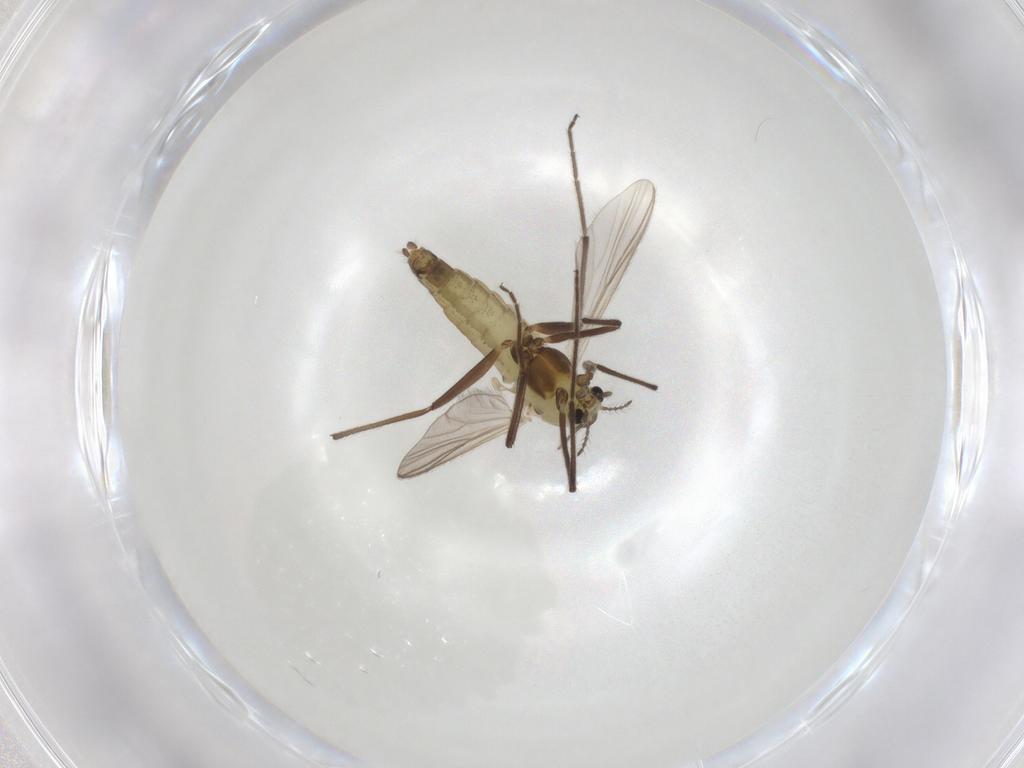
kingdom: Animalia
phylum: Arthropoda
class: Insecta
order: Diptera
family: Chironomidae
